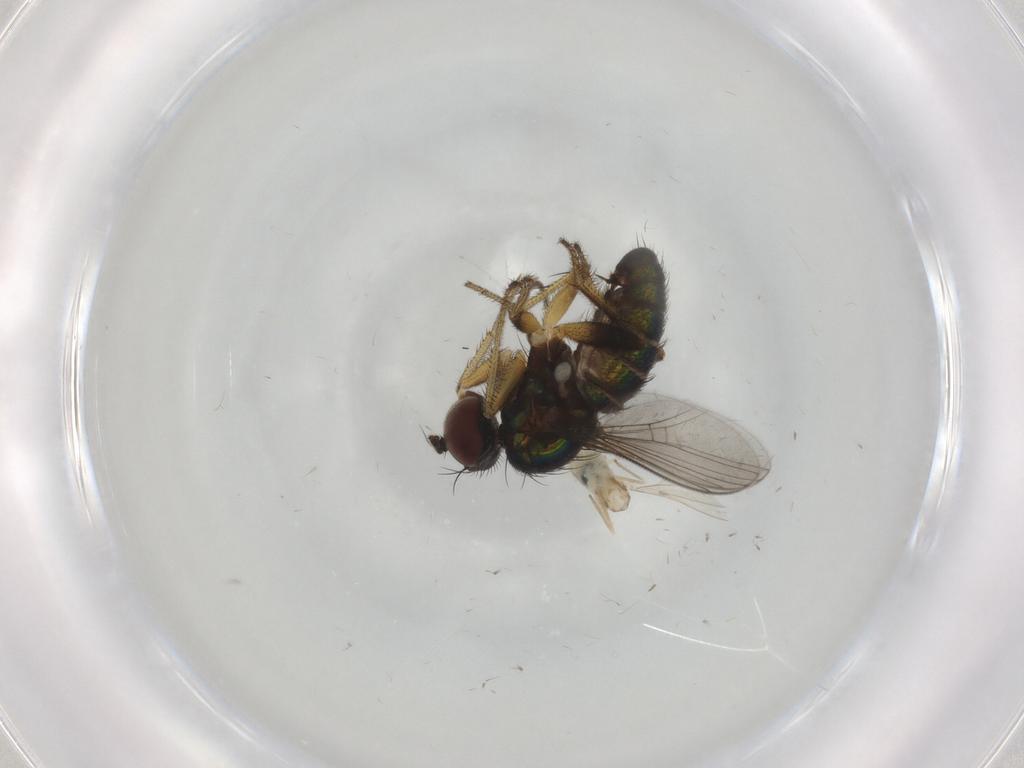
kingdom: Animalia
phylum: Arthropoda
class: Insecta
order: Diptera
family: Dolichopodidae
